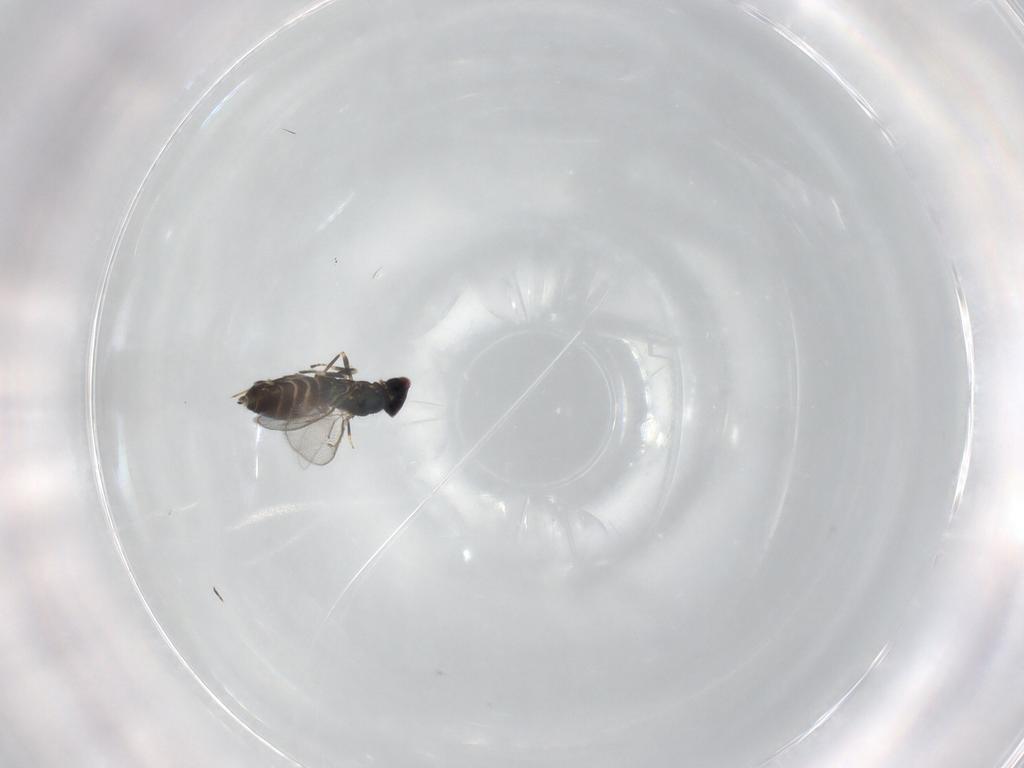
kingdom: Animalia
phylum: Arthropoda
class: Insecta
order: Hymenoptera
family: Eulophidae
